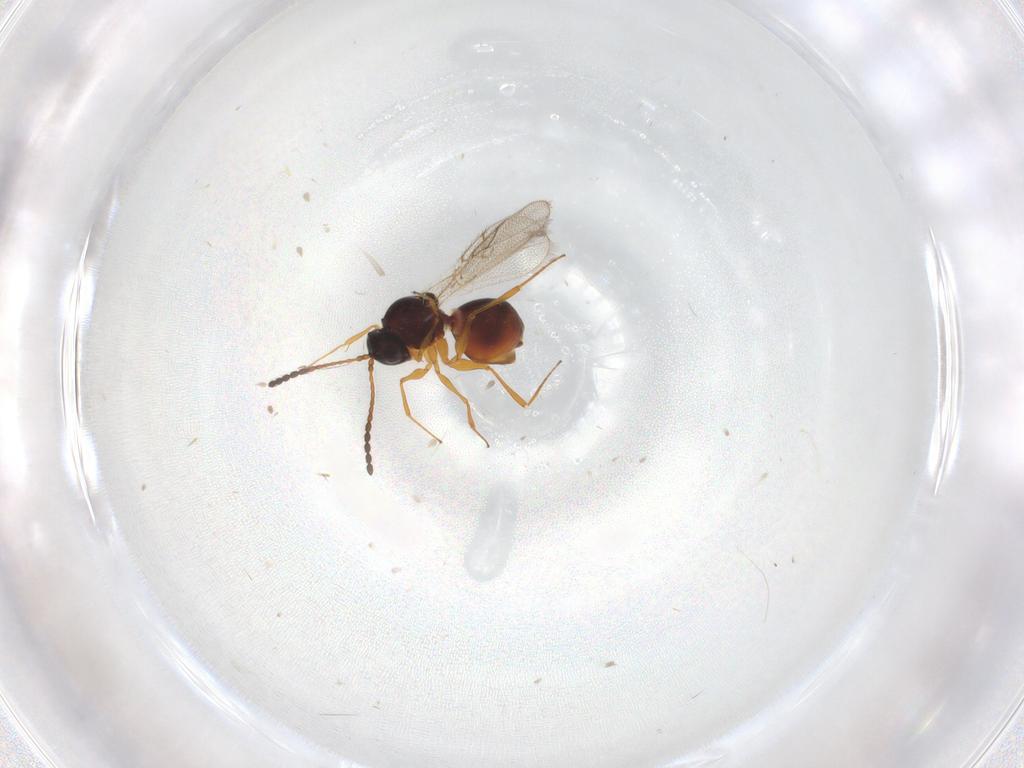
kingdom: Animalia
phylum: Arthropoda
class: Insecta
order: Hymenoptera
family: Figitidae
